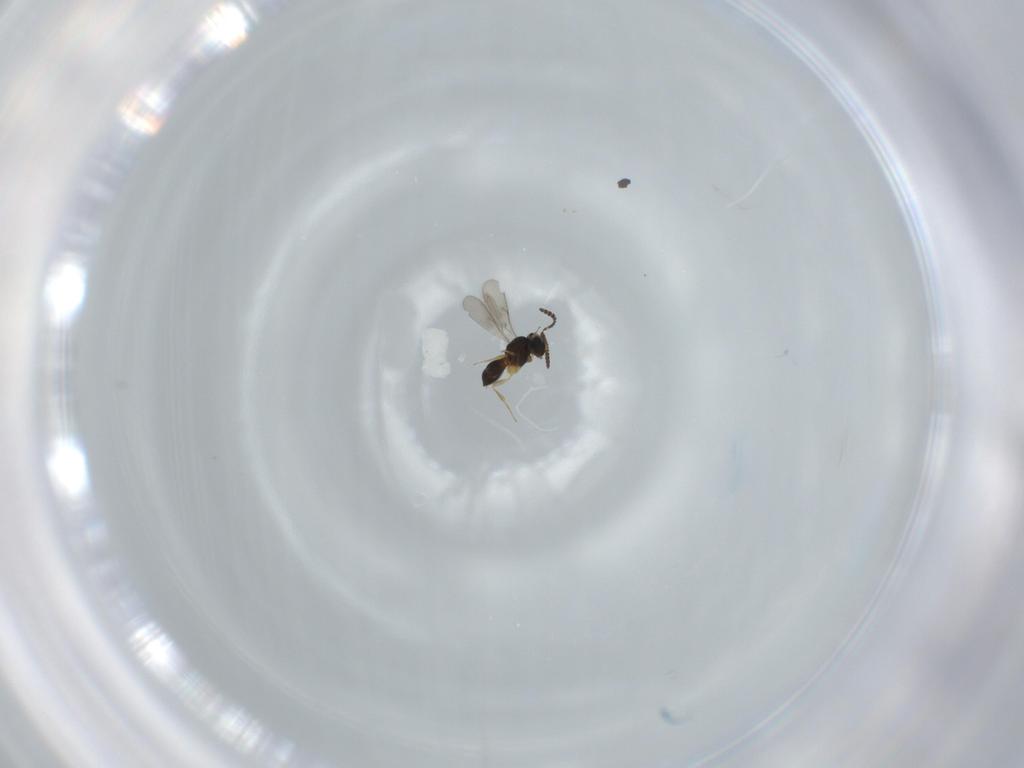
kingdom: Animalia
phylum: Arthropoda
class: Insecta
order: Hymenoptera
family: Scelionidae
